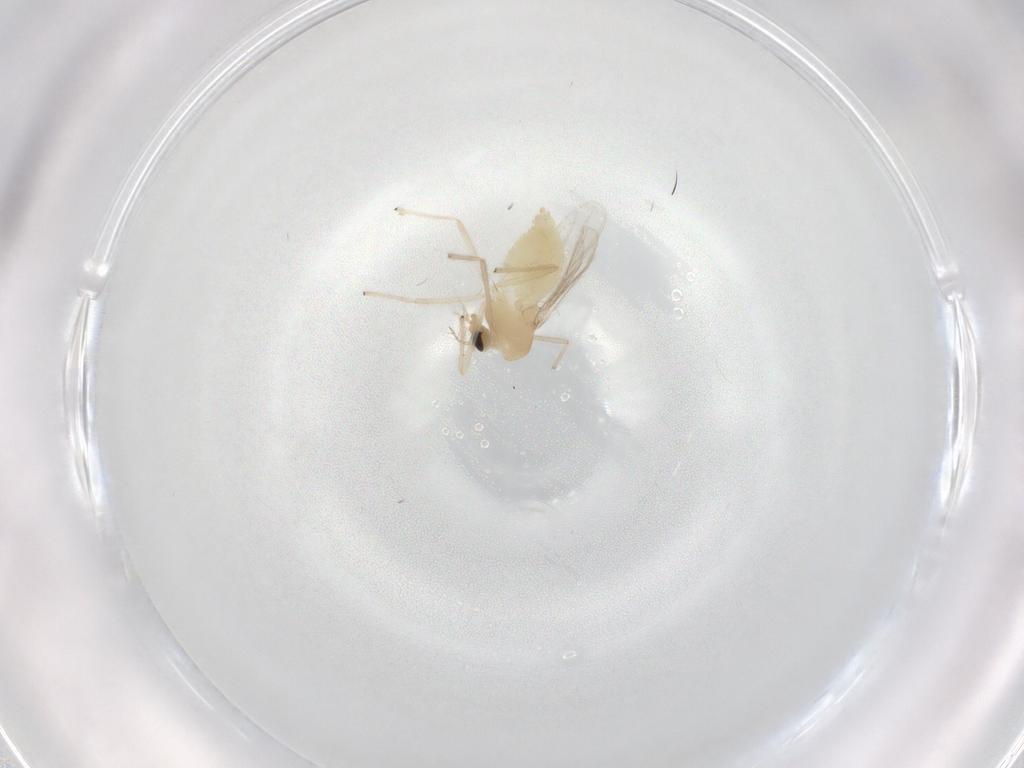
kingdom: Animalia
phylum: Arthropoda
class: Insecta
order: Diptera
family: Chironomidae
